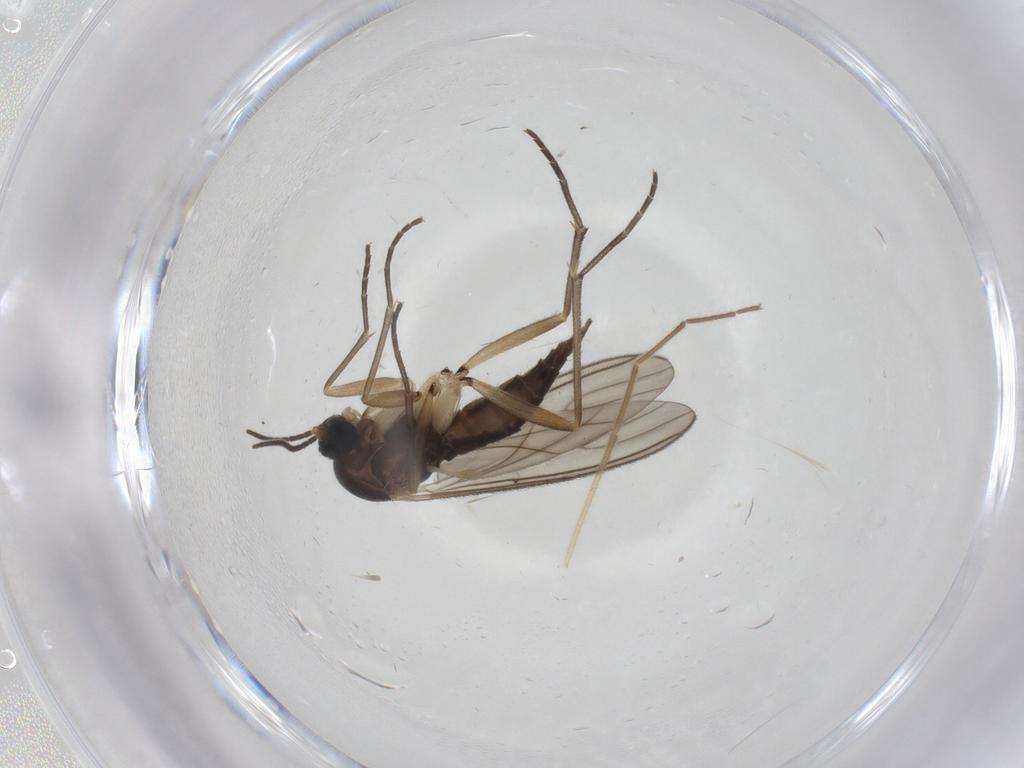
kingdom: Animalia
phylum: Arthropoda
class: Insecta
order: Diptera
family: Sciaridae
